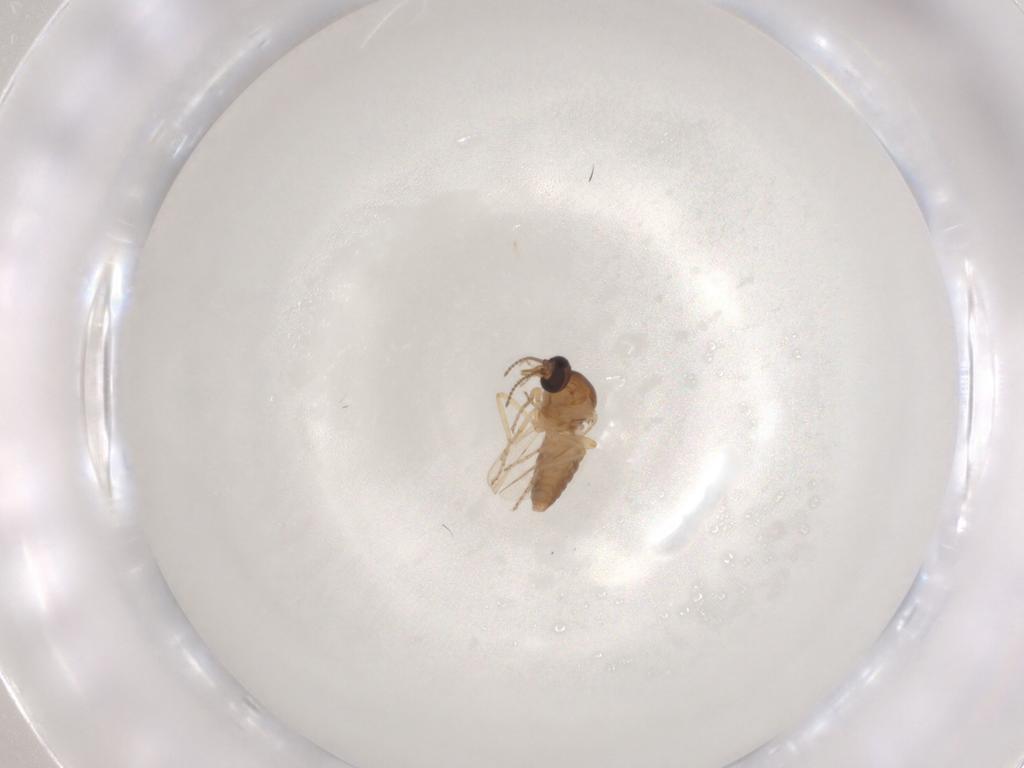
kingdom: Animalia
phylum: Arthropoda
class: Insecta
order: Diptera
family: Ceratopogonidae
